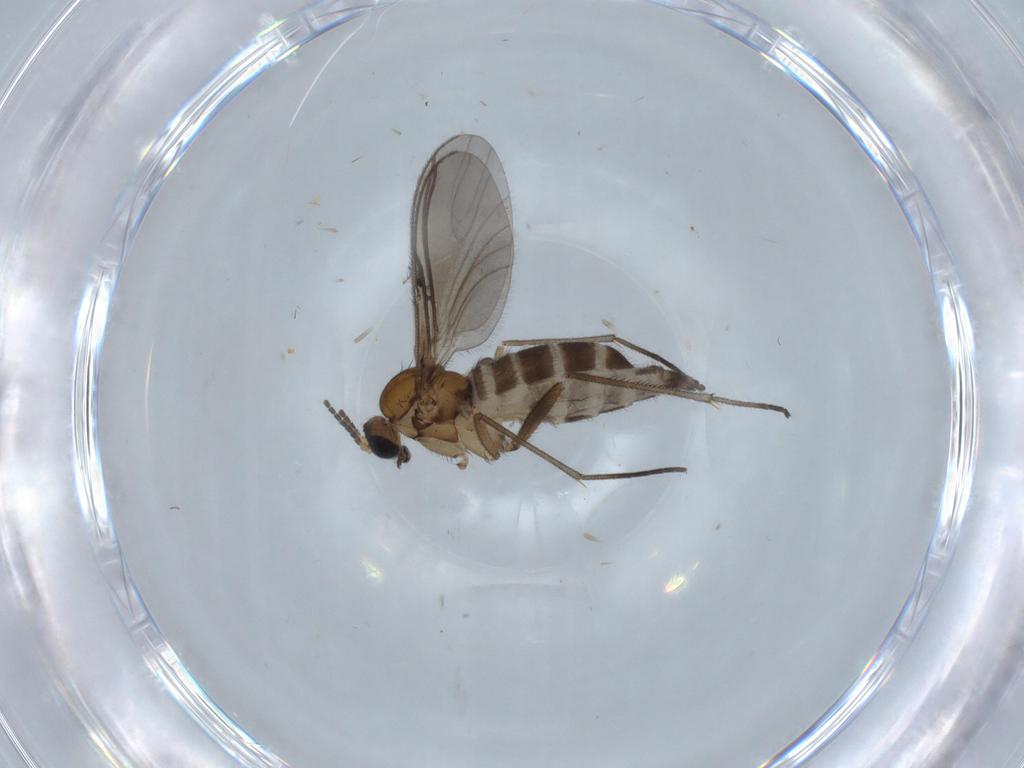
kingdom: Animalia
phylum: Arthropoda
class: Insecta
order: Diptera
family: Sciaridae
